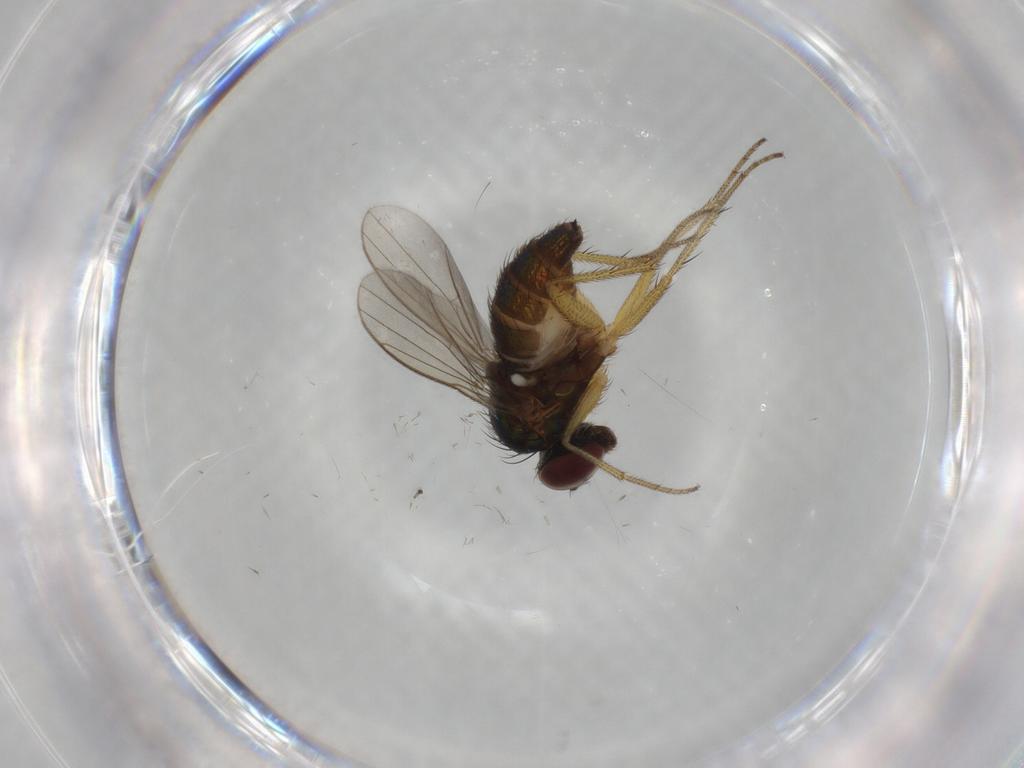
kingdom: Animalia
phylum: Arthropoda
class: Insecta
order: Diptera
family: Dolichopodidae
